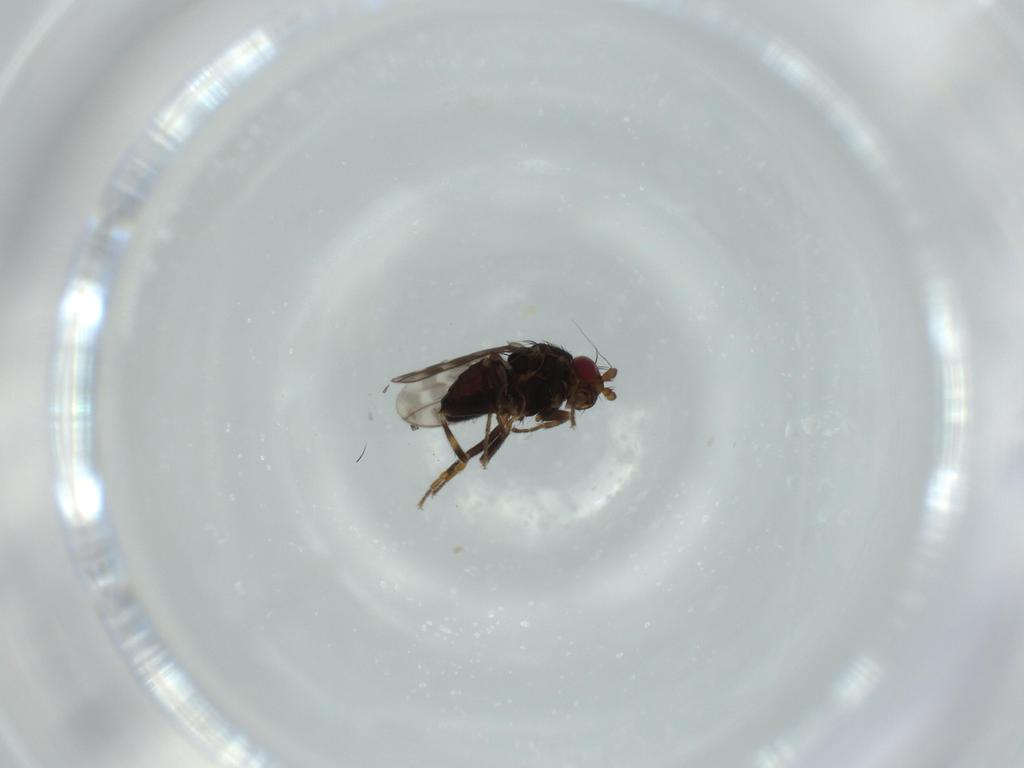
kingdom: Animalia
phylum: Arthropoda
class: Insecta
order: Diptera
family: Sphaeroceridae
